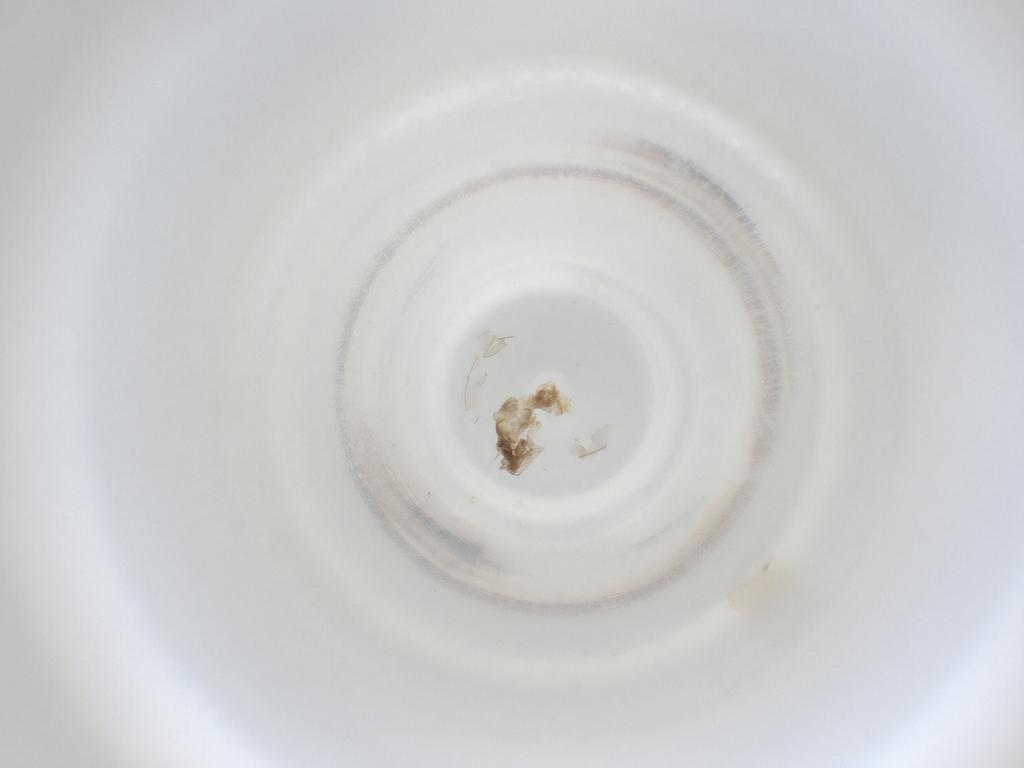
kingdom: Animalia
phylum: Arthropoda
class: Insecta
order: Diptera
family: Cecidomyiidae
